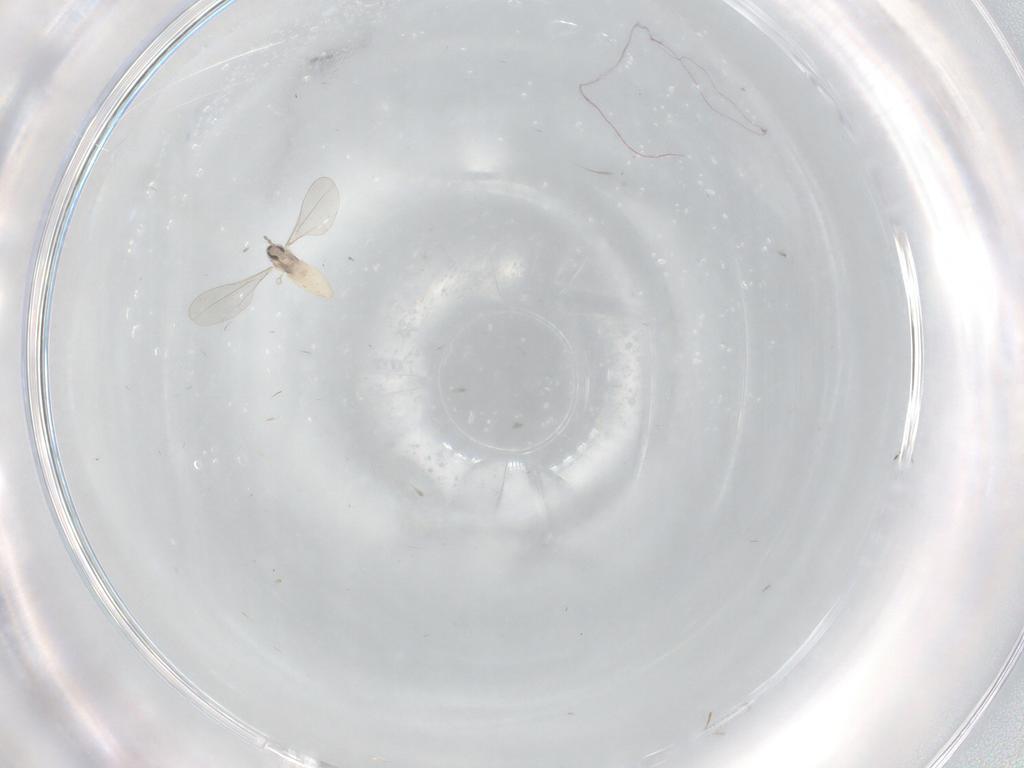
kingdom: Animalia
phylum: Arthropoda
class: Insecta
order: Diptera
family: Chironomidae
